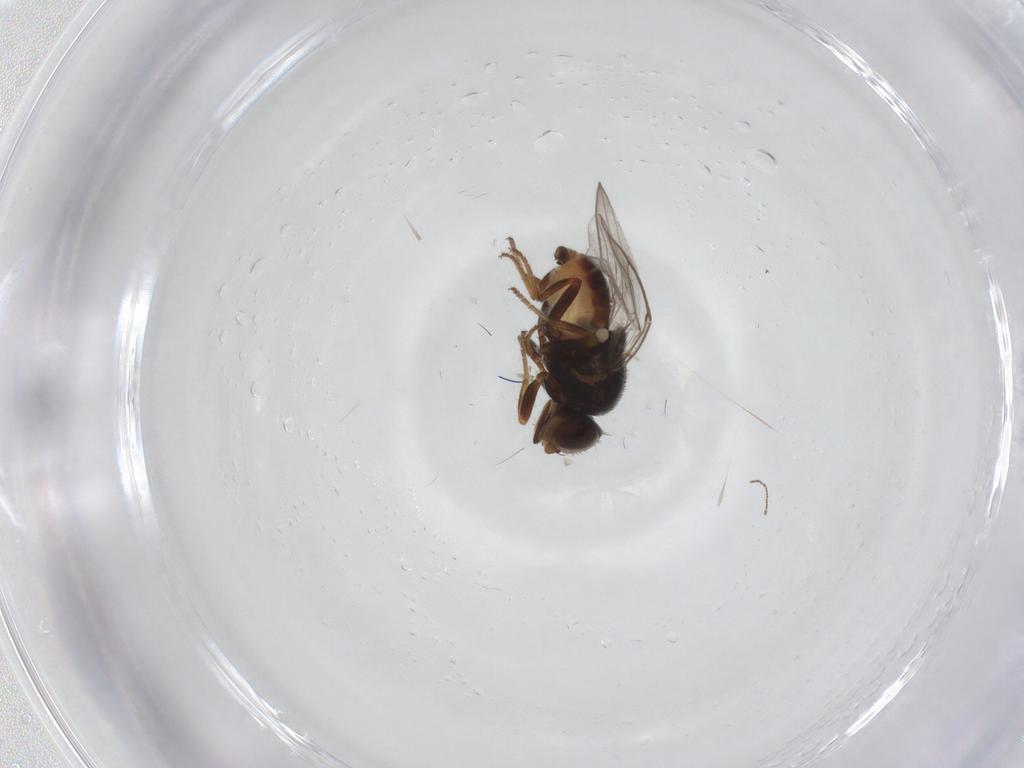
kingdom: Animalia
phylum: Arthropoda
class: Insecta
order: Diptera
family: Chloropidae
